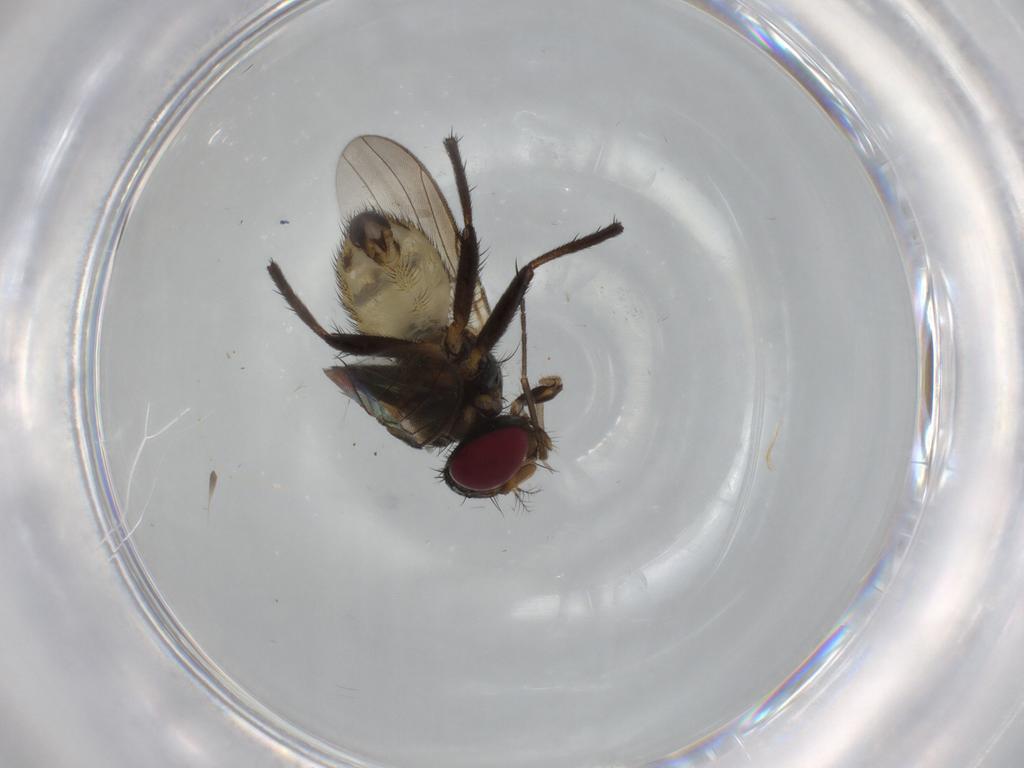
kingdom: Animalia
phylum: Arthropoda
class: Insecta
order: Diptera
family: Anthomyiidae
